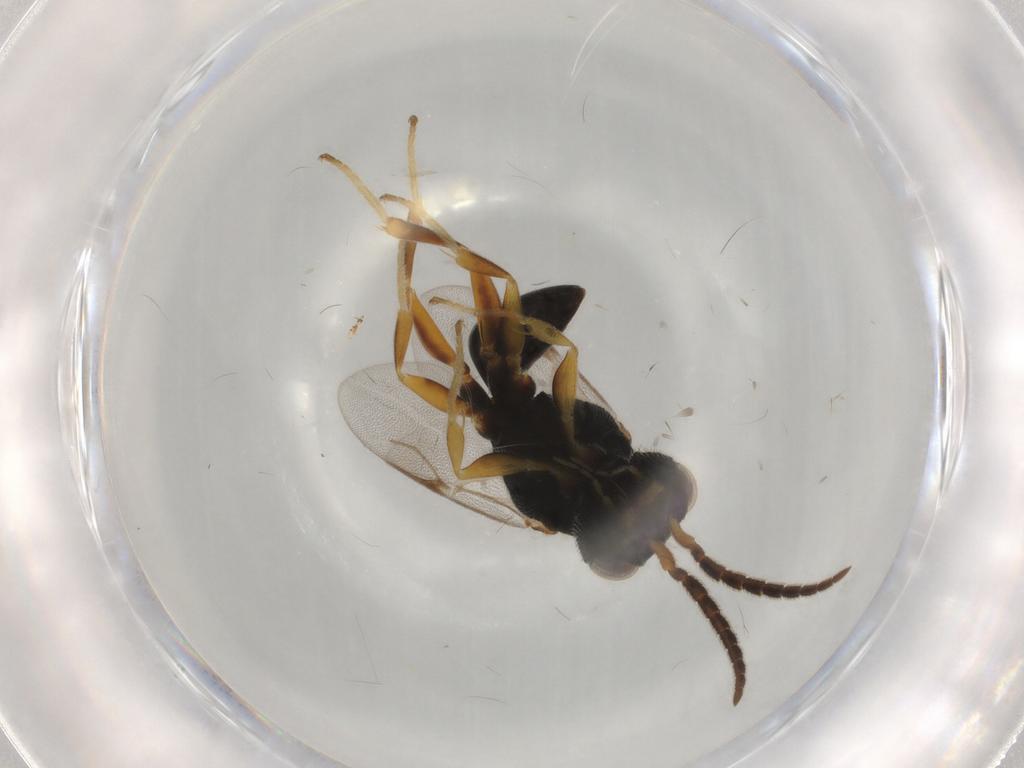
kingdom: Animalia
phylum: Arthropoda
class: Insecta
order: Hymenoptera
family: Dryinidae
